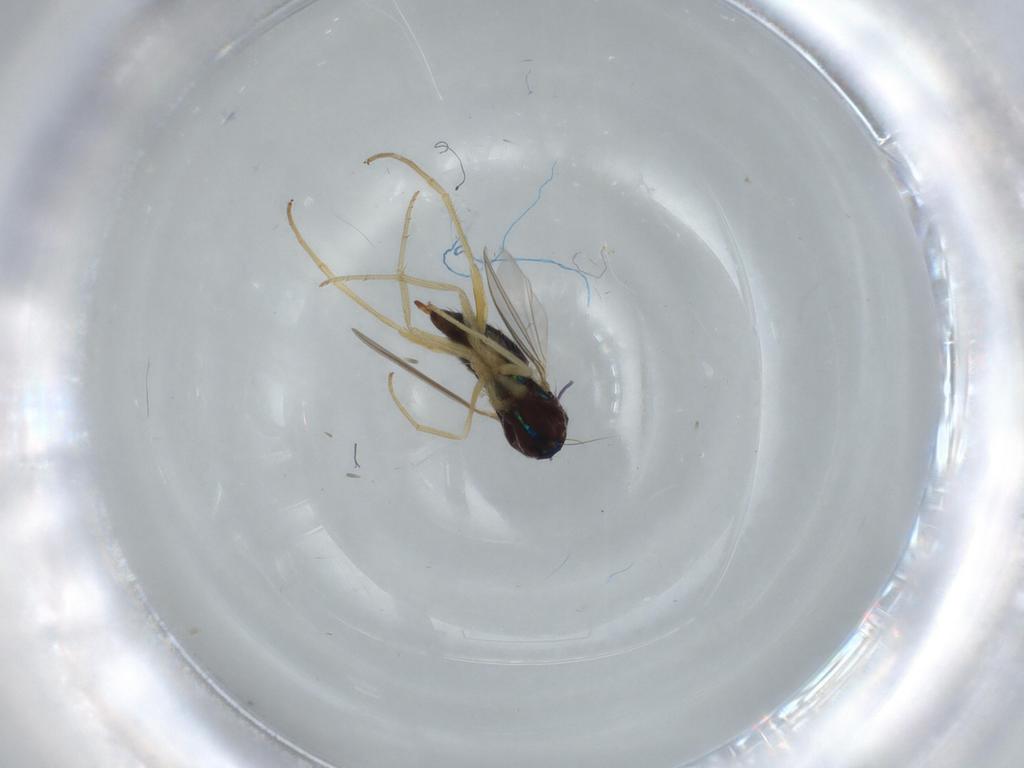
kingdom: Animalia
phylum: Arthropoda
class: Insecta
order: Diptera
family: Dolichopodidae
